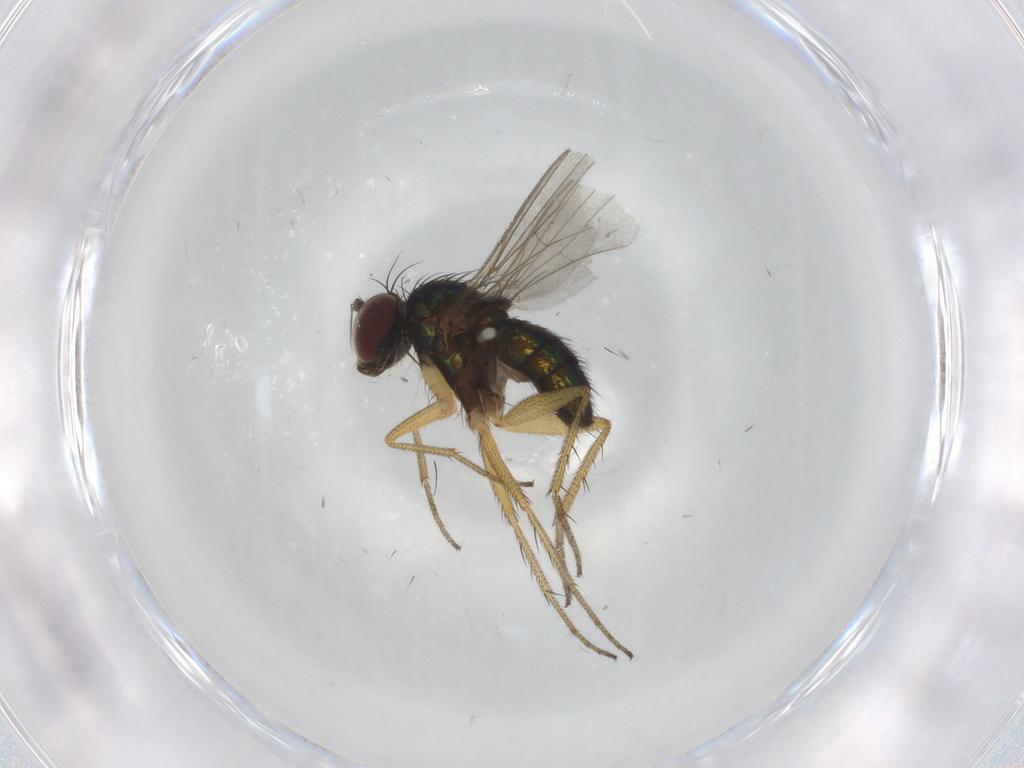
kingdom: Animalia
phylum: Arthropoda
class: Insecta
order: Diptera
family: Dolichopodidae
